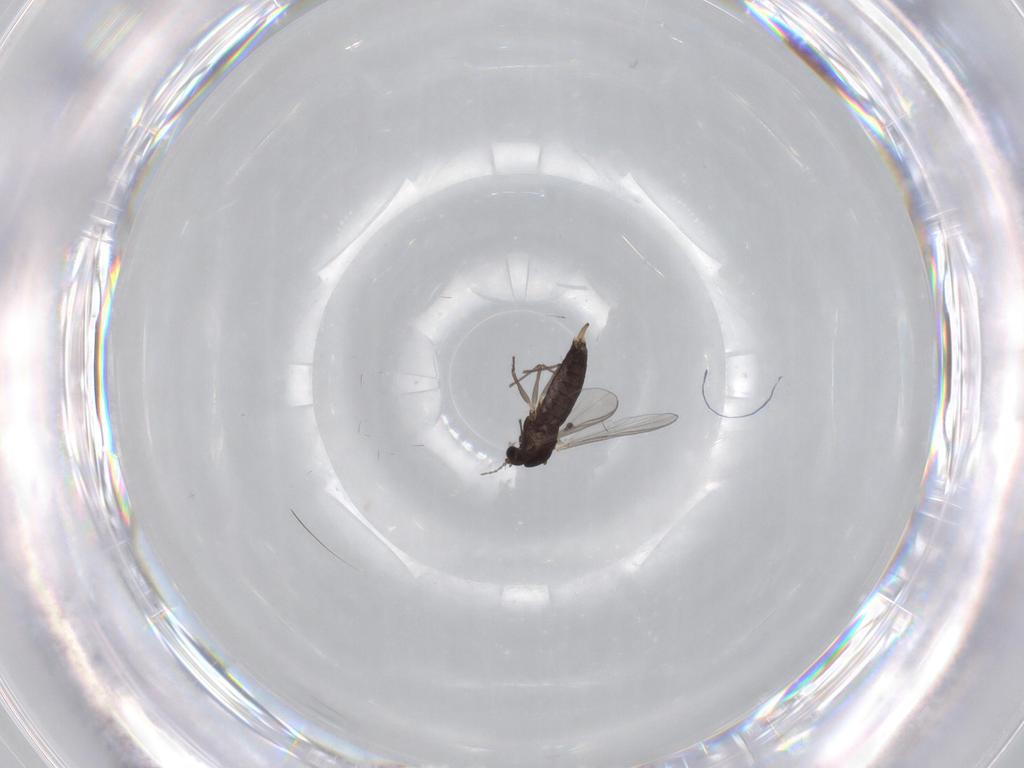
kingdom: Animalia
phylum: Arthropoda
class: Insecta
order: Diptera
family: Chironomidae
